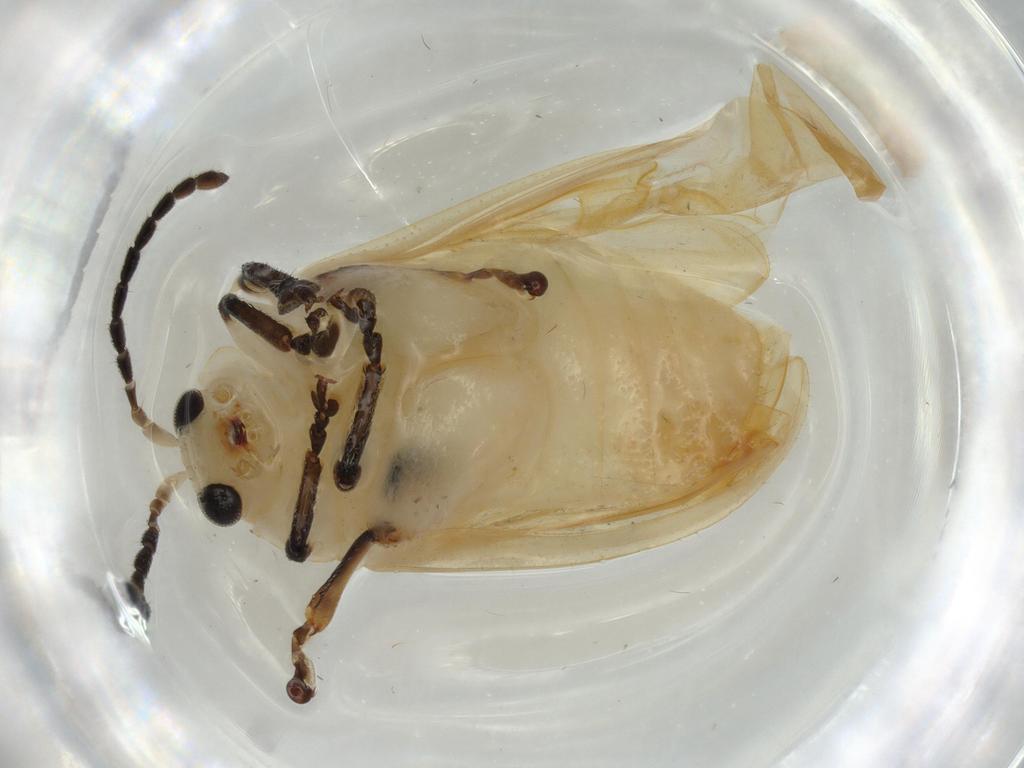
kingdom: Animalia
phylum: Arthropoda
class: Insecta
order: Coleoptera
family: Chrysomelidae
